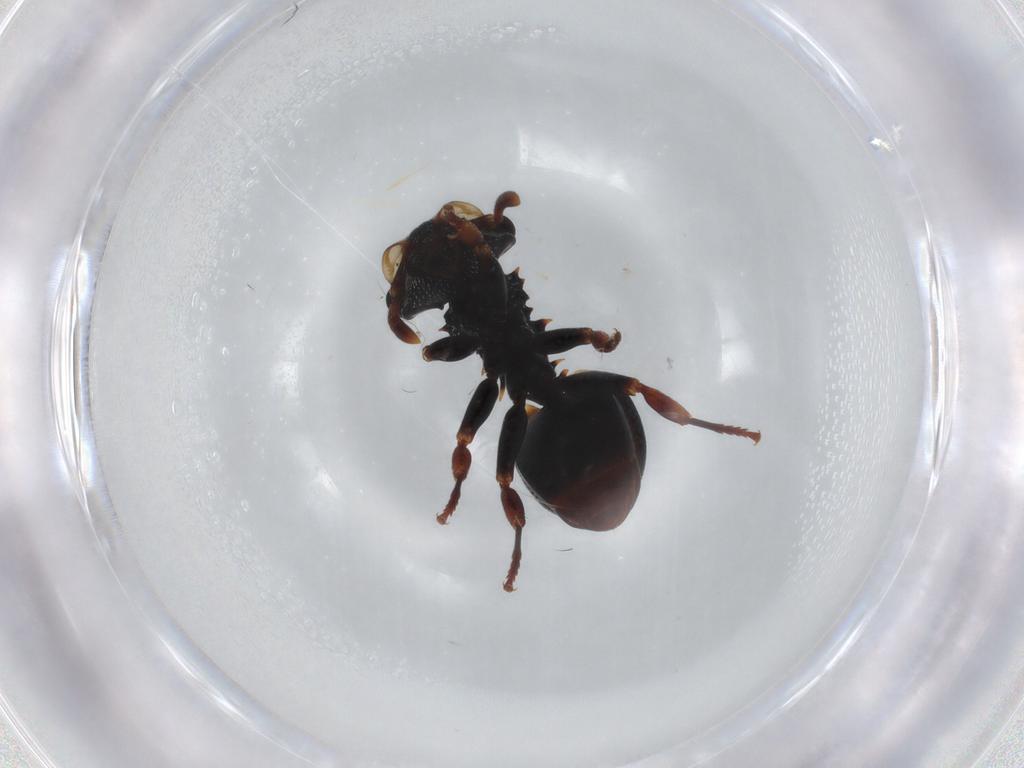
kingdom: Animalia
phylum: Arthropoda
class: Insecta
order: Hymenoptera
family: Formicidae
